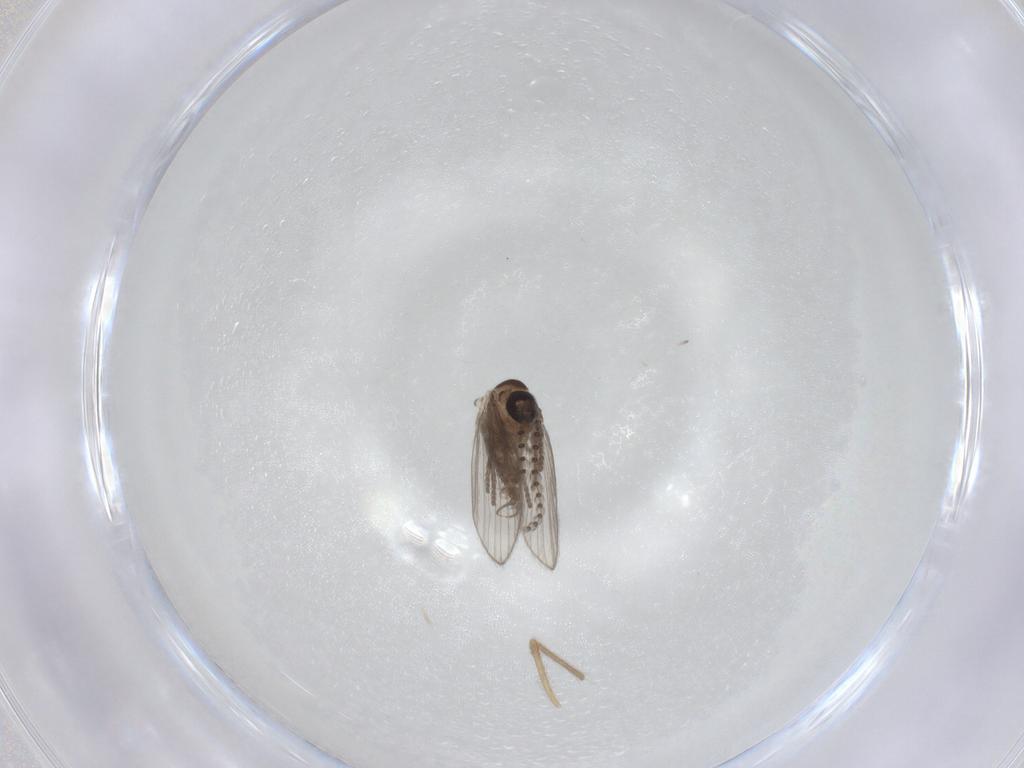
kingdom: Animalia
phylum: Arthropoda
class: Insecta
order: Diptera
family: Psychodidae
